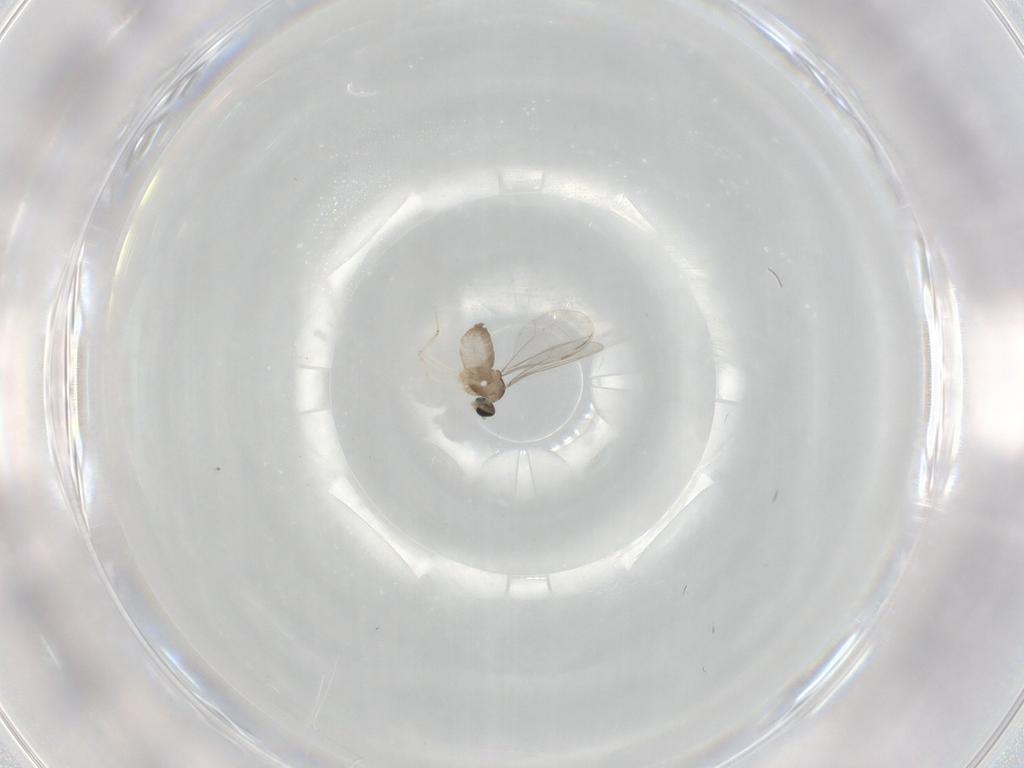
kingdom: Animalia
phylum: Arthropoda
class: Insecta
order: Diptera
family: Cecidomyiidae
